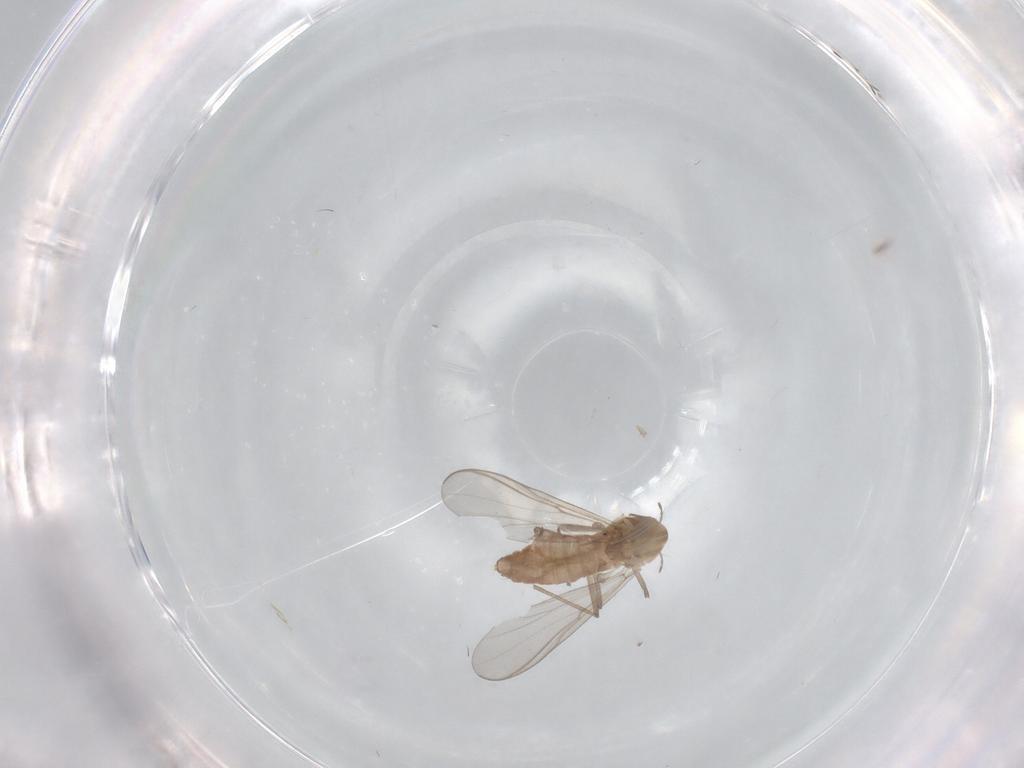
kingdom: Animalia
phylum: Arthropoda
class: Insecta
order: Diptera
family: Chironomidae
